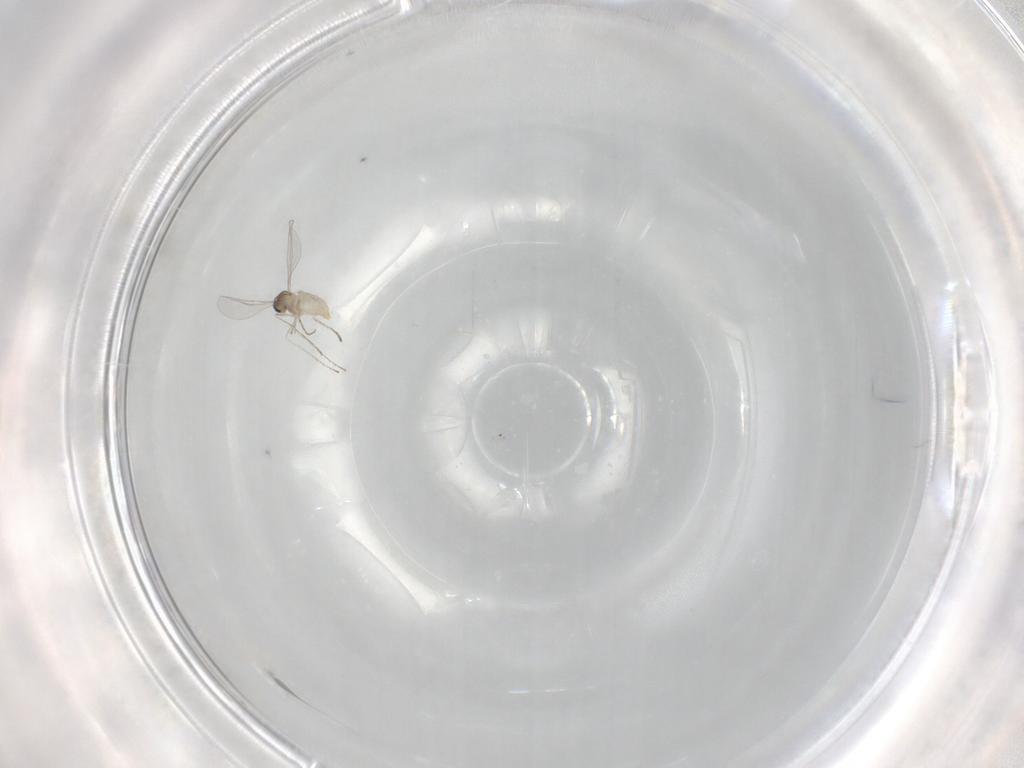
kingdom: Animalia
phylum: Arthropoda
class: Insecta
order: Diptera
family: Cecidomyiidae
